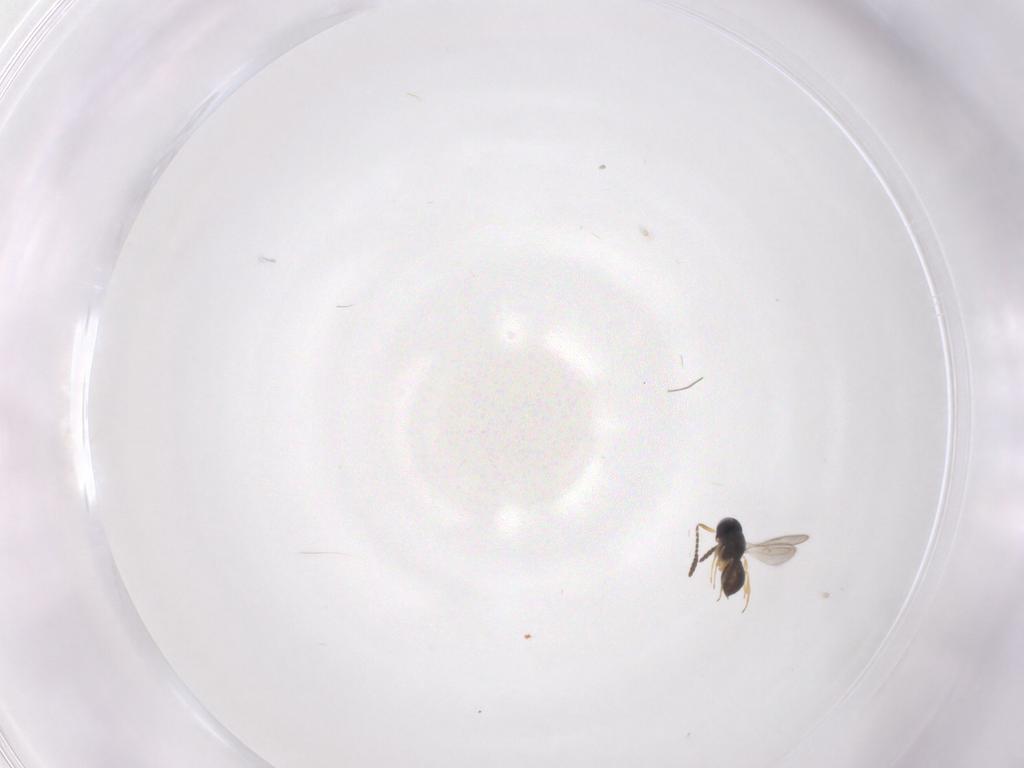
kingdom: Animalia
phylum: Arthropoda
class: Insecta
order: Hymenoptera
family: Scelionidae
